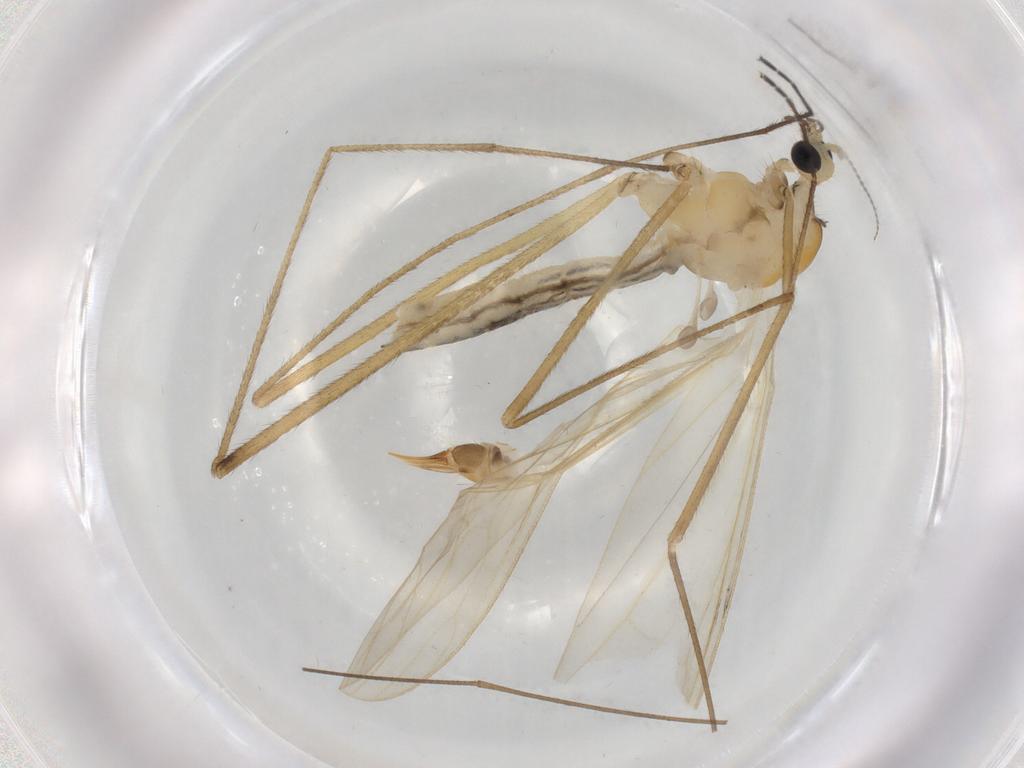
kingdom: Animalia
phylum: Arthropoda
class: Insecta
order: Diptera
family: Limoniidae
